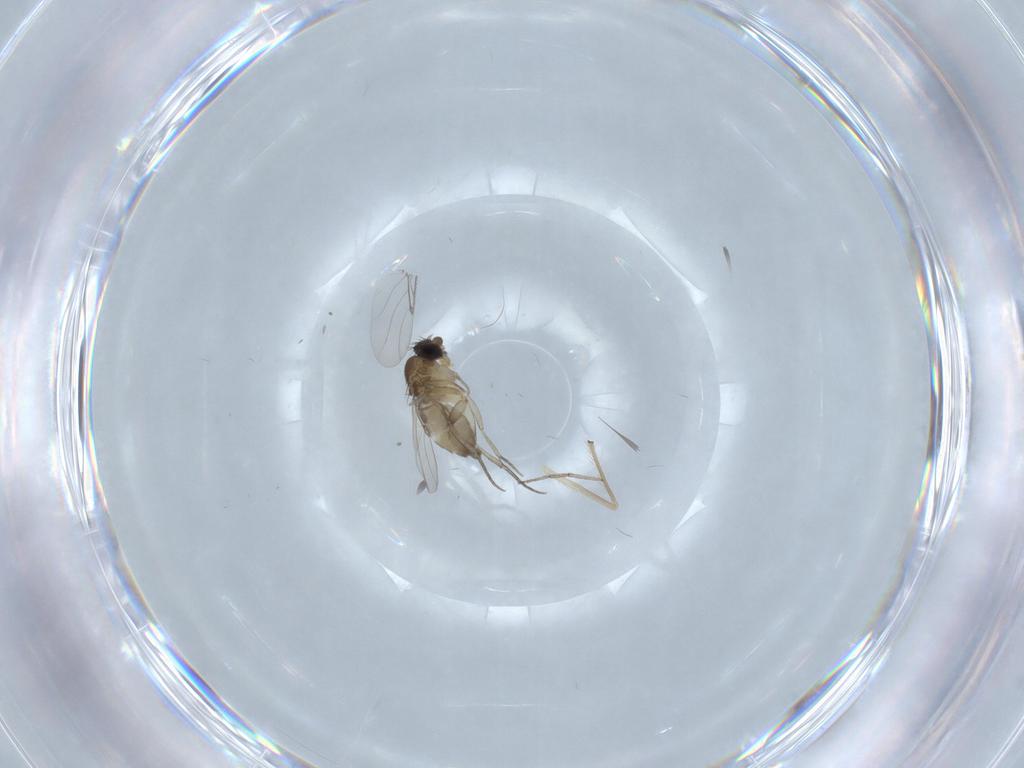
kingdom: Animalia
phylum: Arthropoda
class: Insecta
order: Diptera
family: Phoridae
